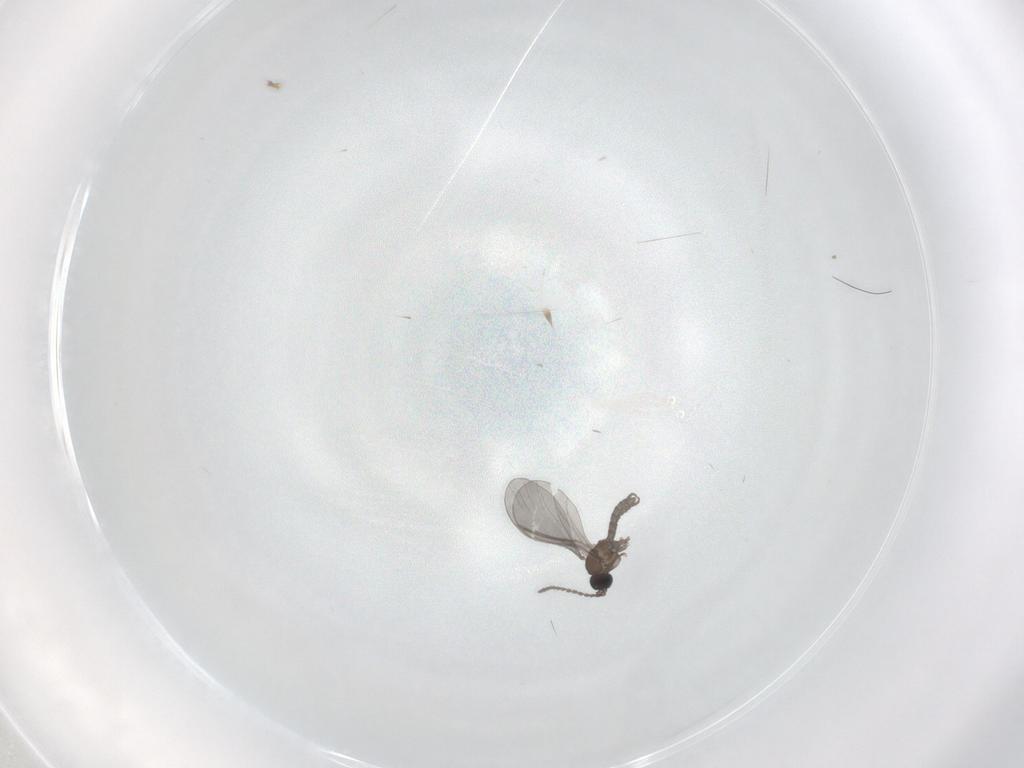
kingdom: Animalia
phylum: Arthropoda
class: Insecta
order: Diptera
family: Sciaridae
